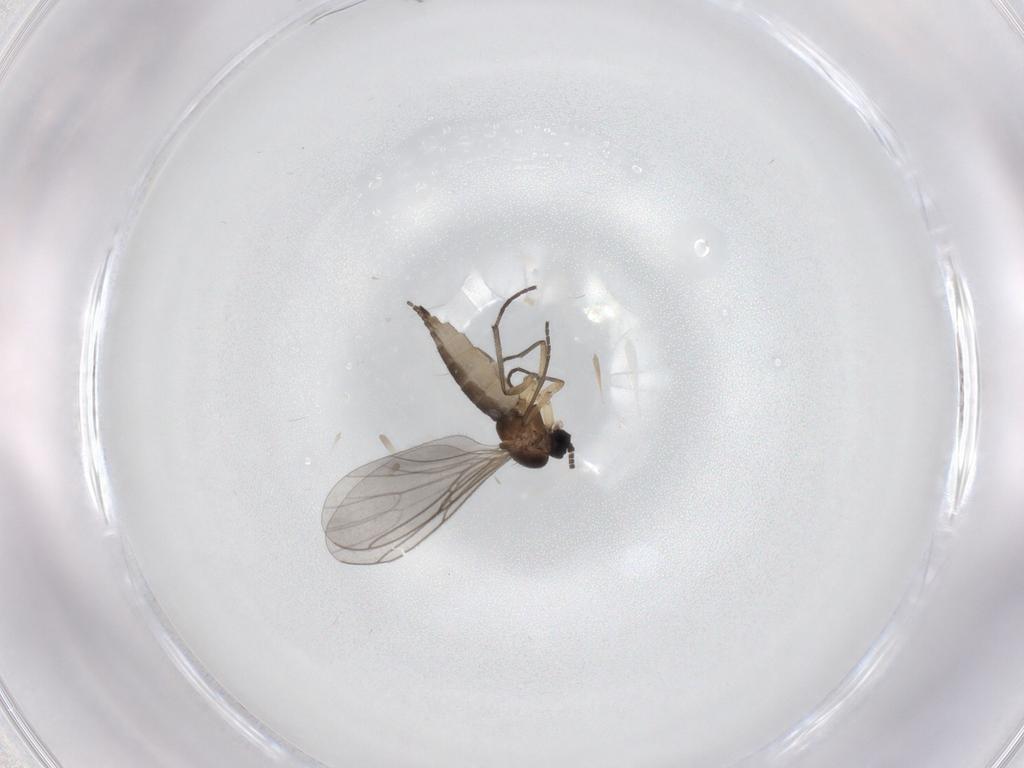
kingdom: Animalia
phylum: Arthropoda
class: Insecta
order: Diptera
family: Sciaridae
